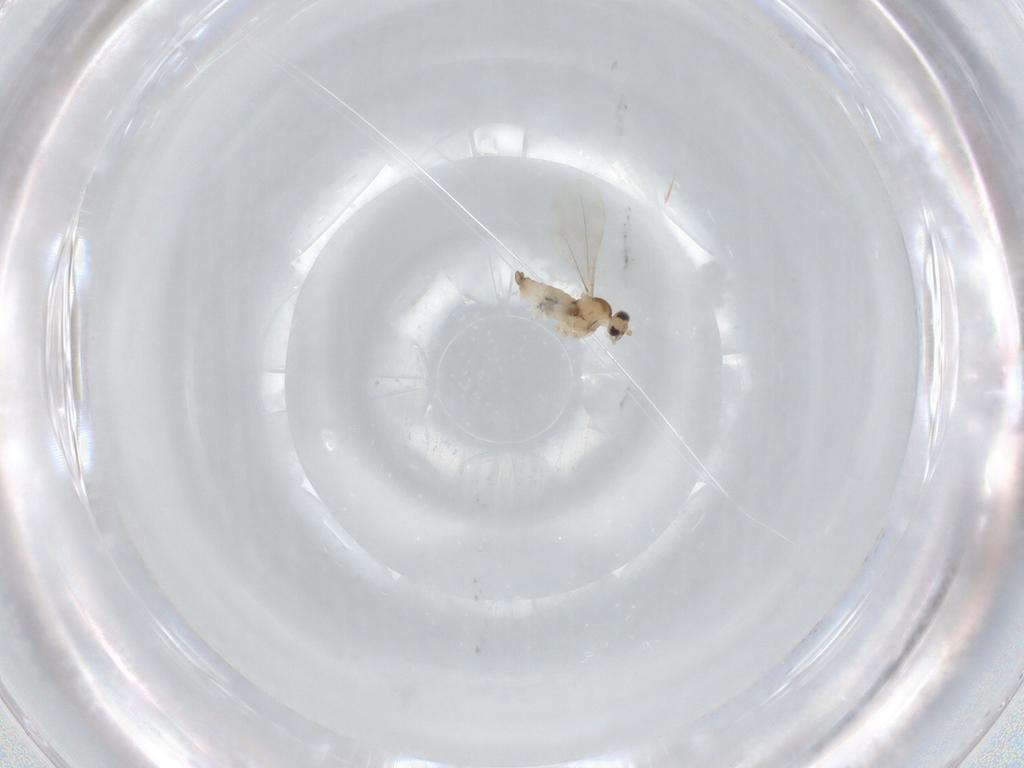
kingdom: Animalia
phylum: Arthropoda
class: Insecta
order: Diptera
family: Cecidomyiidae
